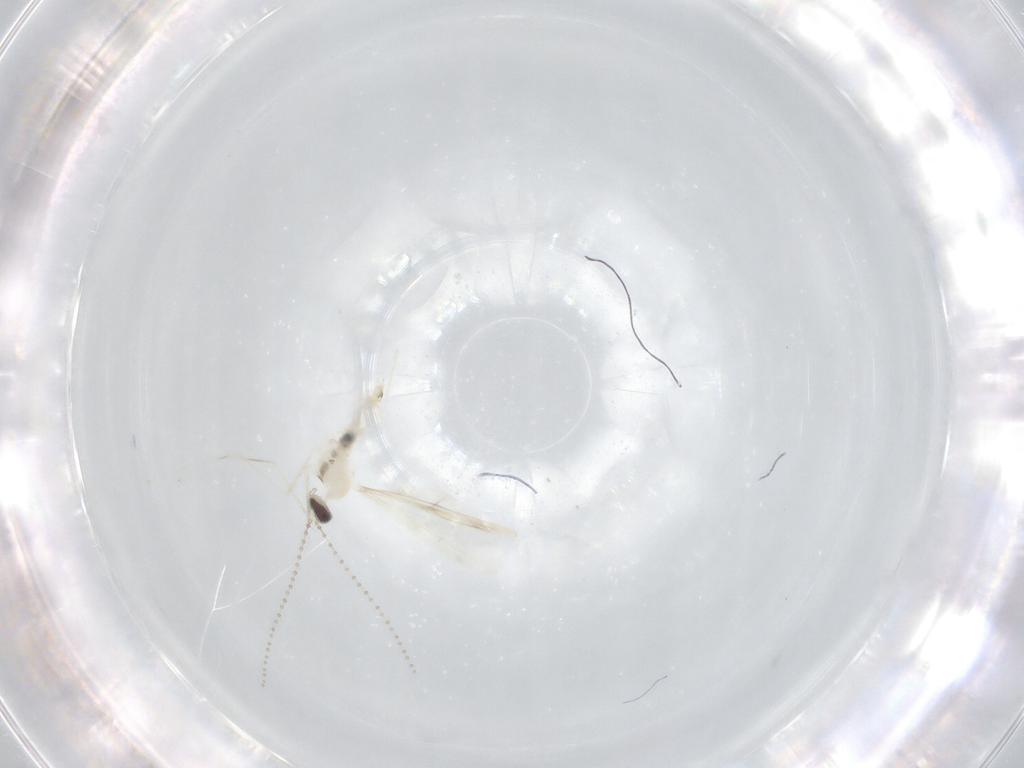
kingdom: Animalia
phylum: Arthropoda
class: Insecta
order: Diptera
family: Cecidomyiidae
